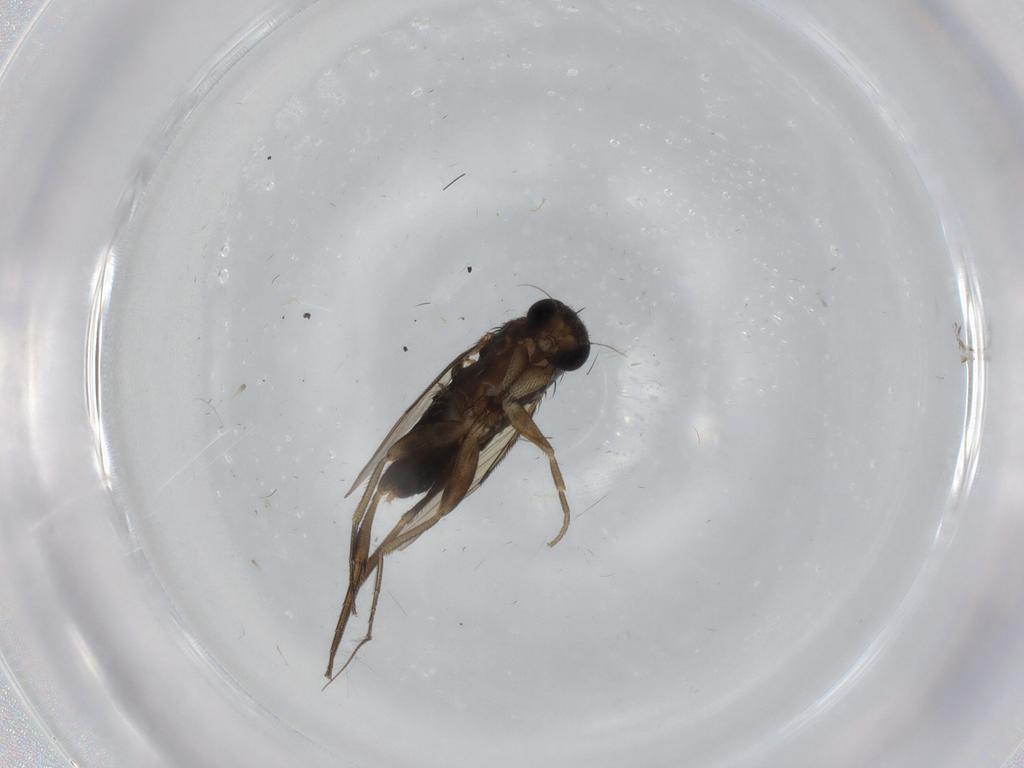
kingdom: Animalia
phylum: Arthropoda
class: Insecta
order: Diptera
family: Phoridae
